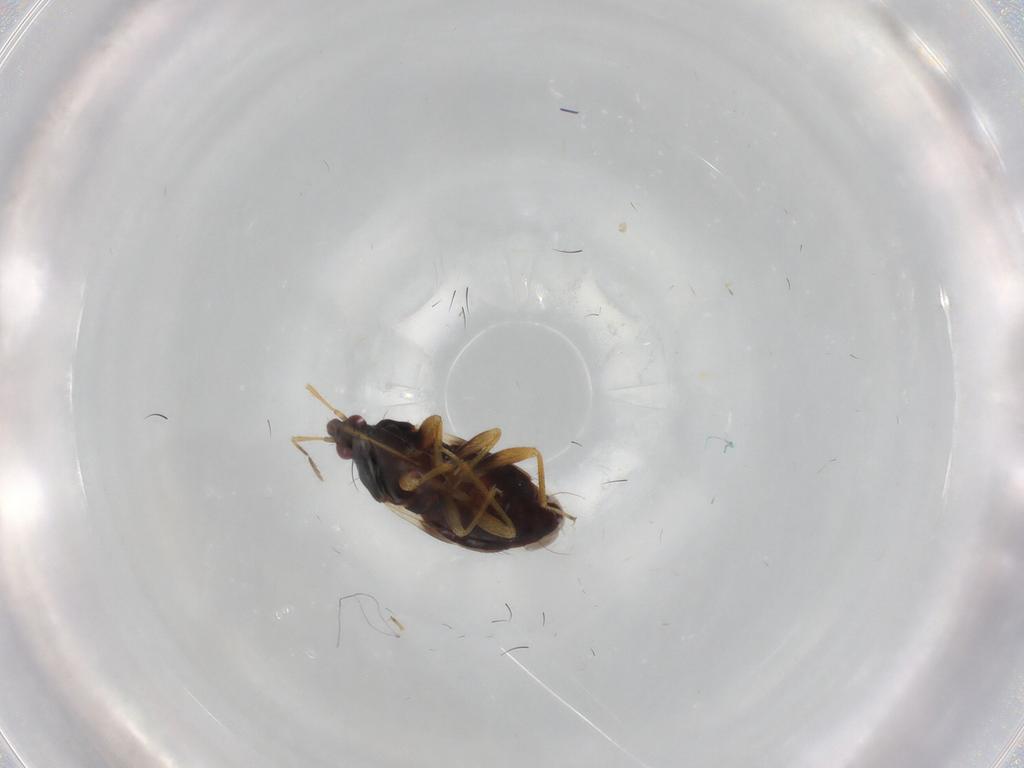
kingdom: Animalia
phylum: Arthropoda
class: Insecta
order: Hemiptera
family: Anthocoridae
